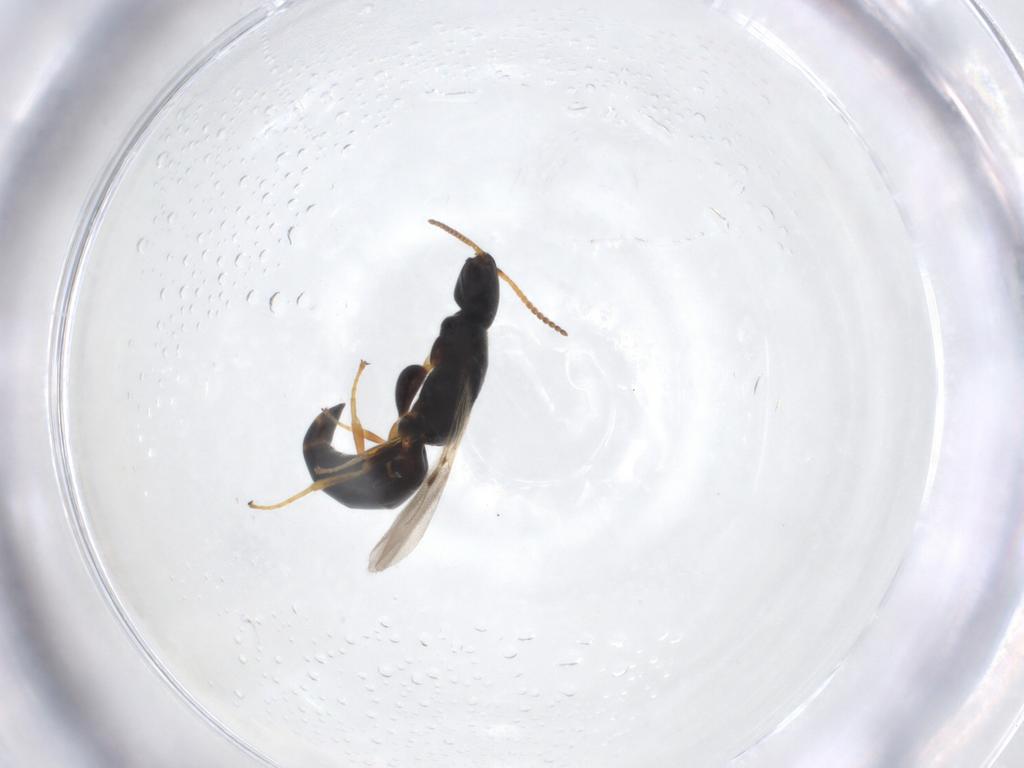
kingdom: Animalia
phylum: Arthropoda
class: Insecta
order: Hymenoptera
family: Bethylidae
